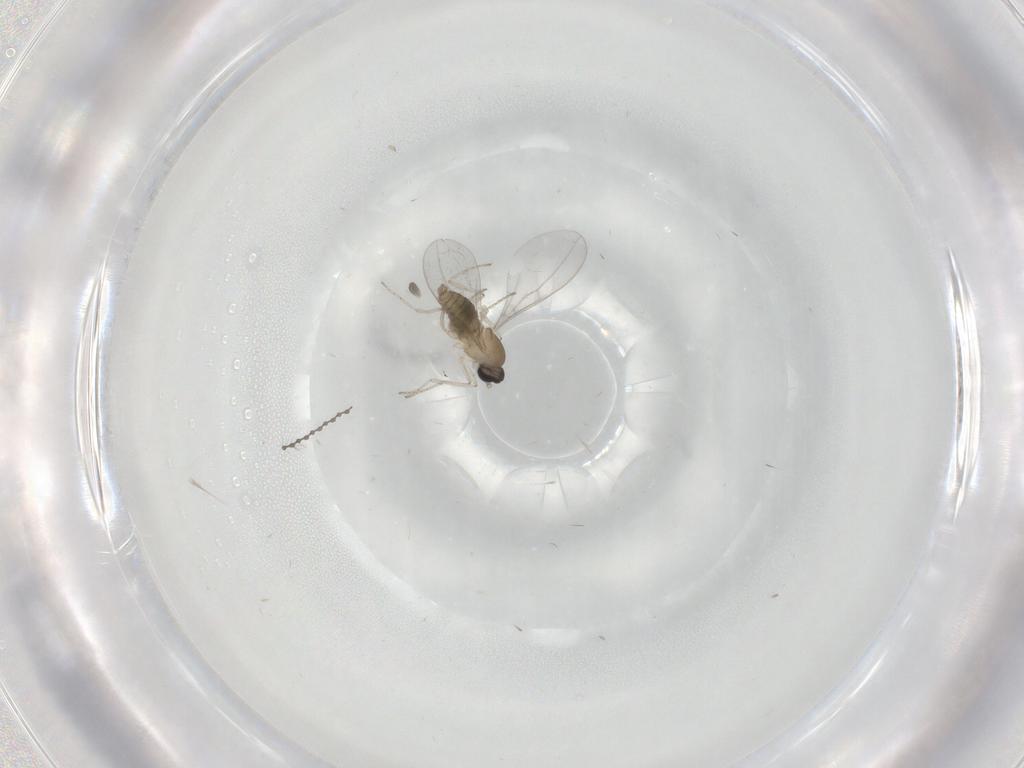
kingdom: Animalia
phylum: Arthropoda
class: Insecta
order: Diptera
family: Cecidomyiidae
